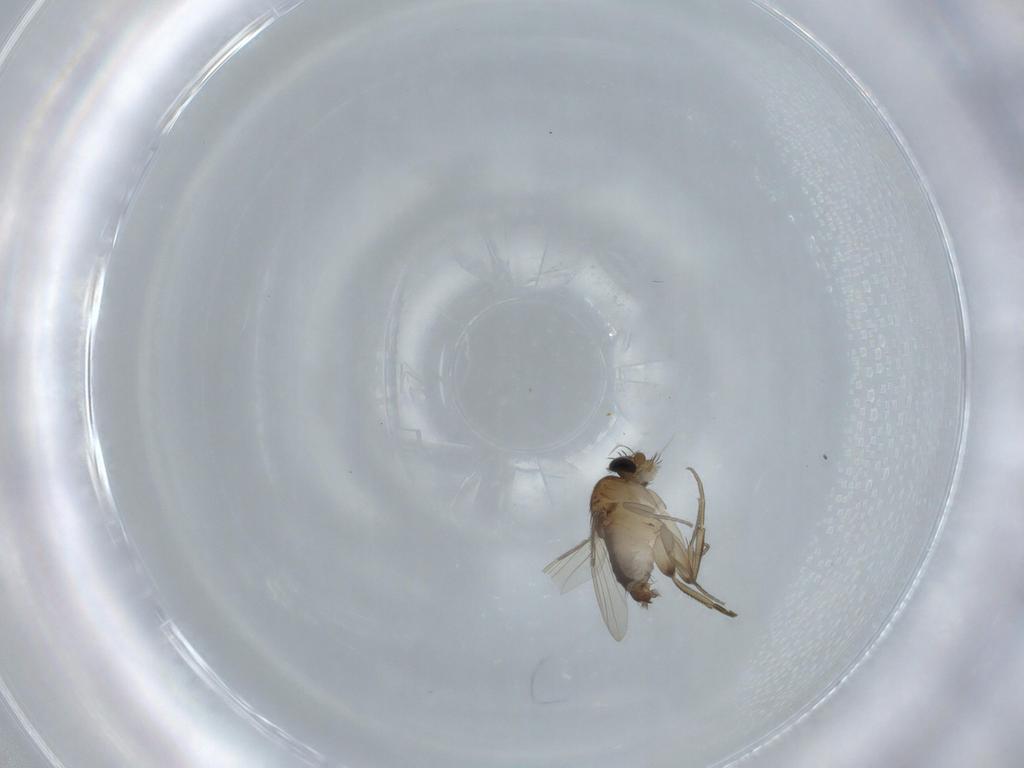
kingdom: Animalia
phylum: Arthropoda
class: Insecta
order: Diptera
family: Phoridae
